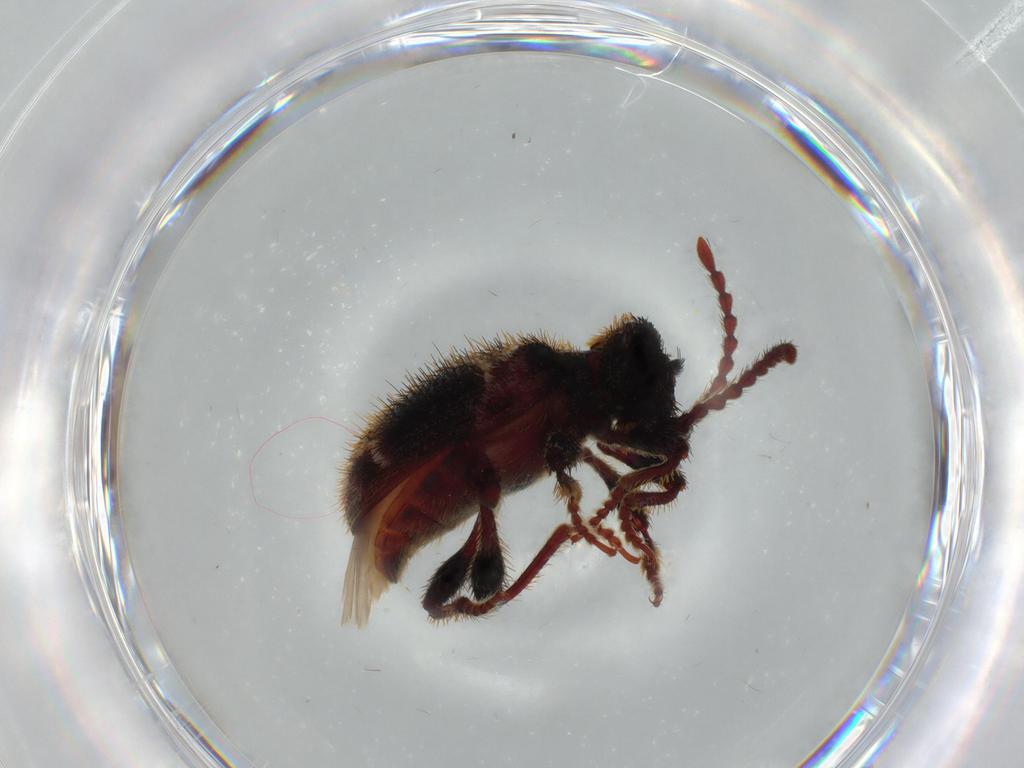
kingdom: Animalia
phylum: Arthropoda
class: Insecta
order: Coleoptera
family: Ptinidae
